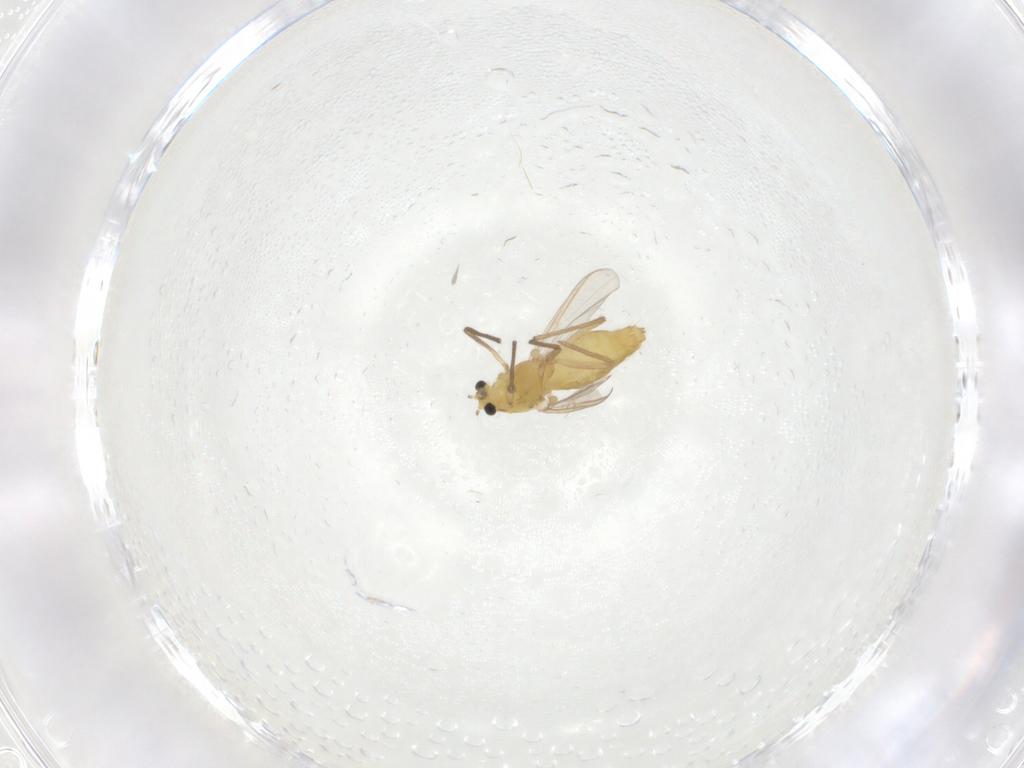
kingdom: Animalia
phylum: Arthropoda
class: Insecta
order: Diptera
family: Chironomidae
